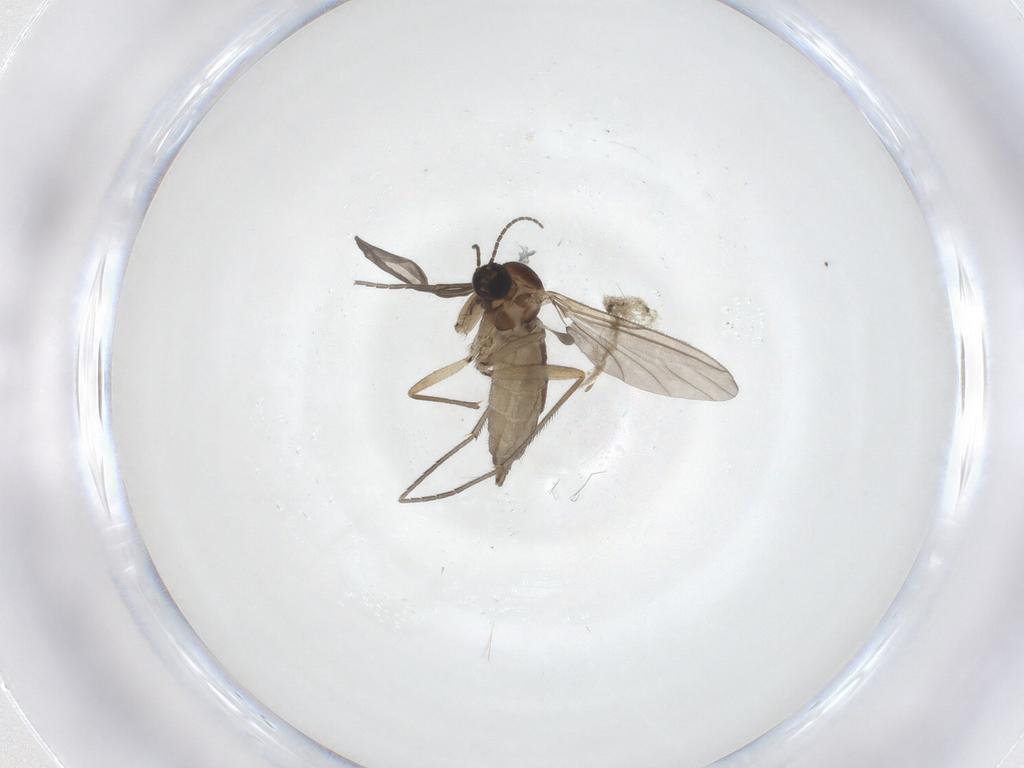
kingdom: Animalia
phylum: Arthropoda
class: Insecta
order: Diptera
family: Sciaridae
